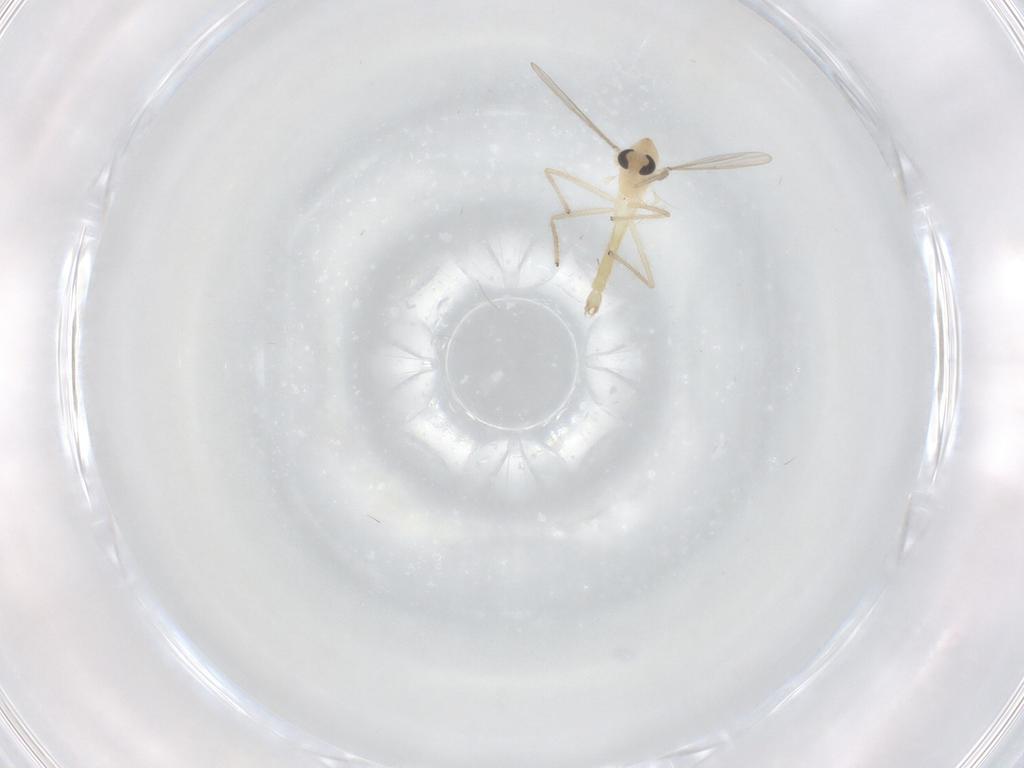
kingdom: Animalia
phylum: Arthropoda
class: Insecta
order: Diptera
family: Chironomidae
